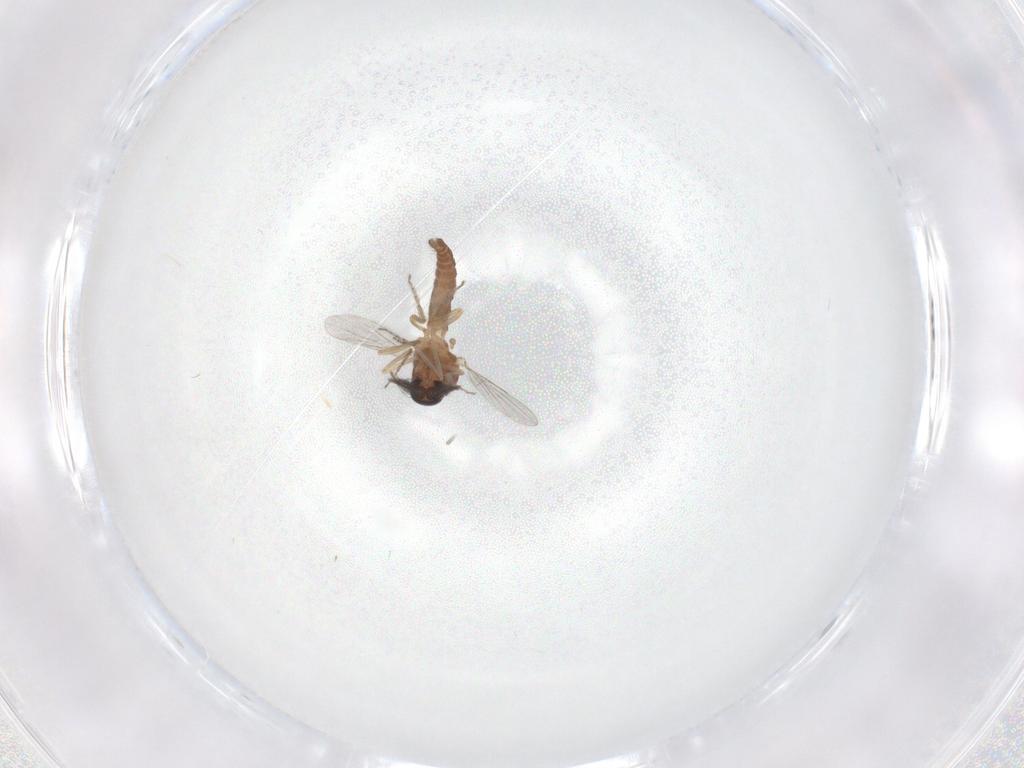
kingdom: Animalia
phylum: Arthropoda
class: Insecta
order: Diptera
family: Ceratopogonidae
